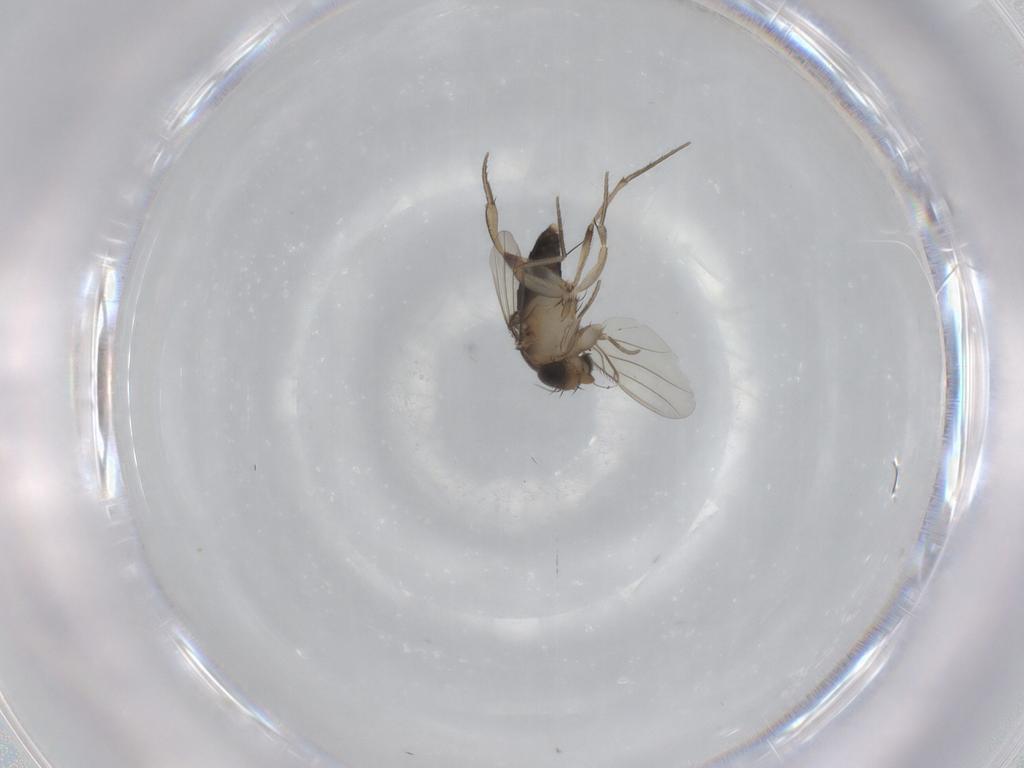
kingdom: Animalia
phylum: Arthropoda
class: Insecta
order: Diptera
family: Phoridae
